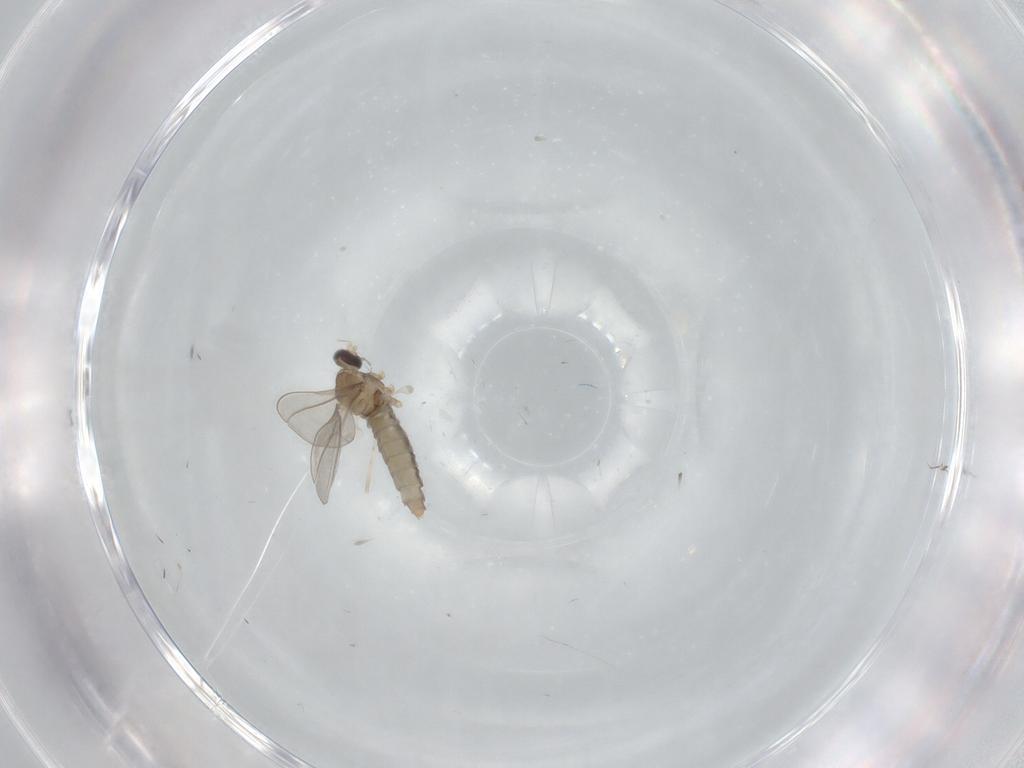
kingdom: Animalia
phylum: Arthropoda
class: Insecta
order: Diptera
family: Cecidomyiidae
